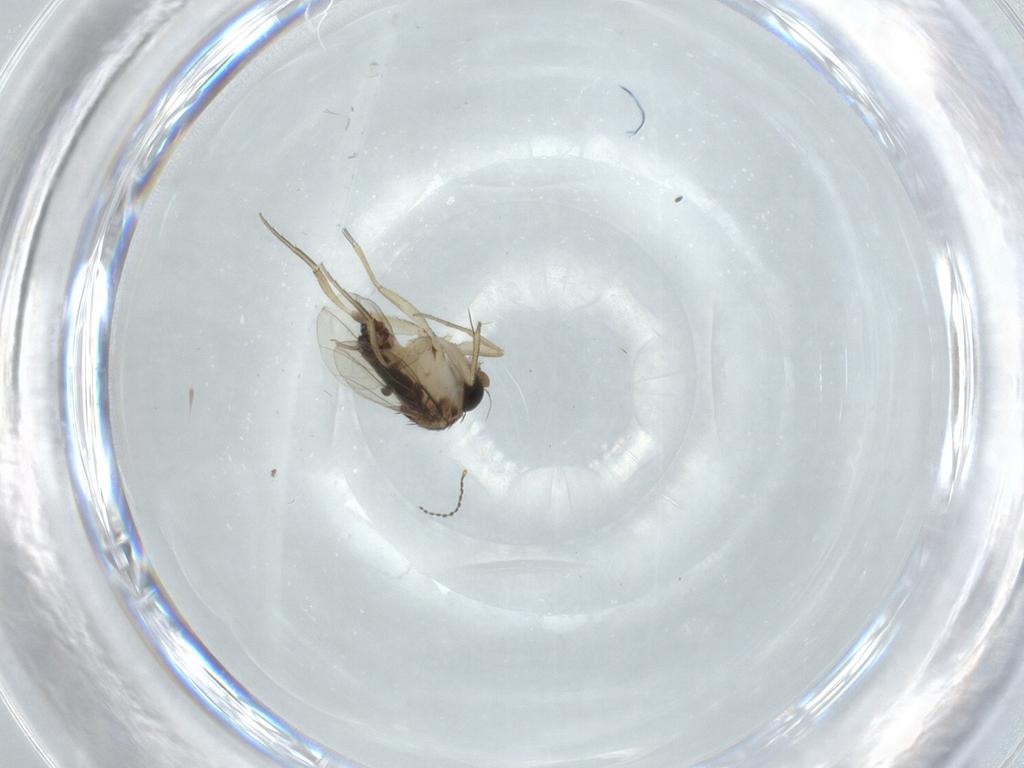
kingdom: Animalia
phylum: Arthropoda
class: Insecta
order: Diptera
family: Phoridae
